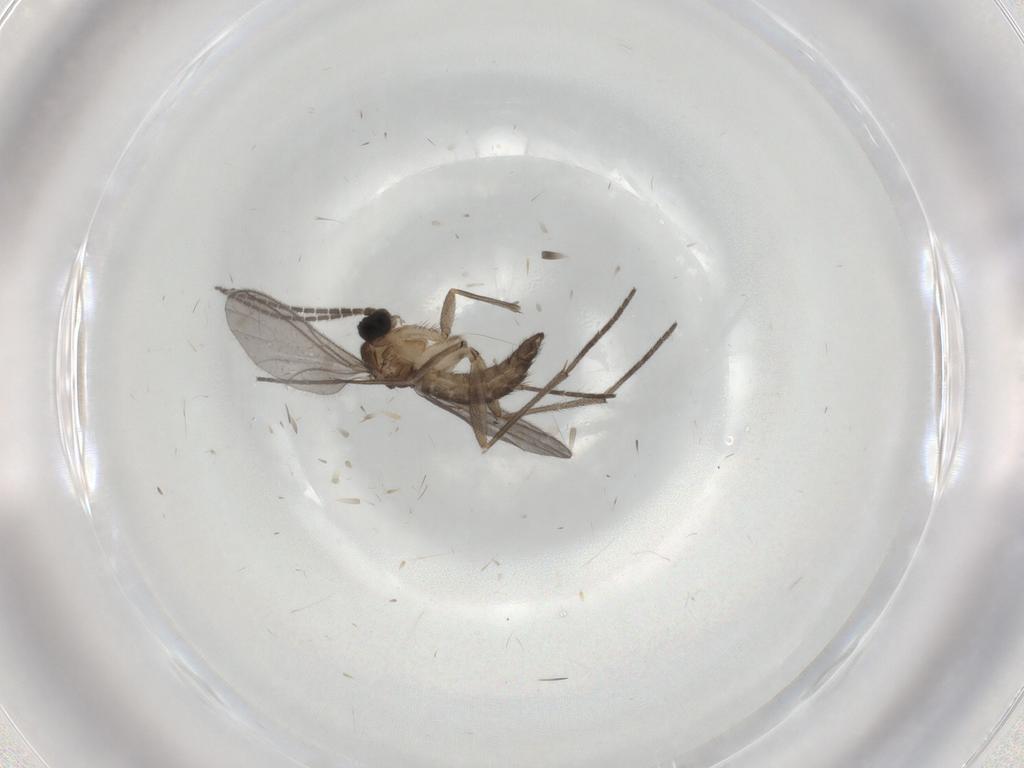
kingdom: Animalia
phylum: Arthropoda
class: Insecta
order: Diptera
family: Sciaridae
